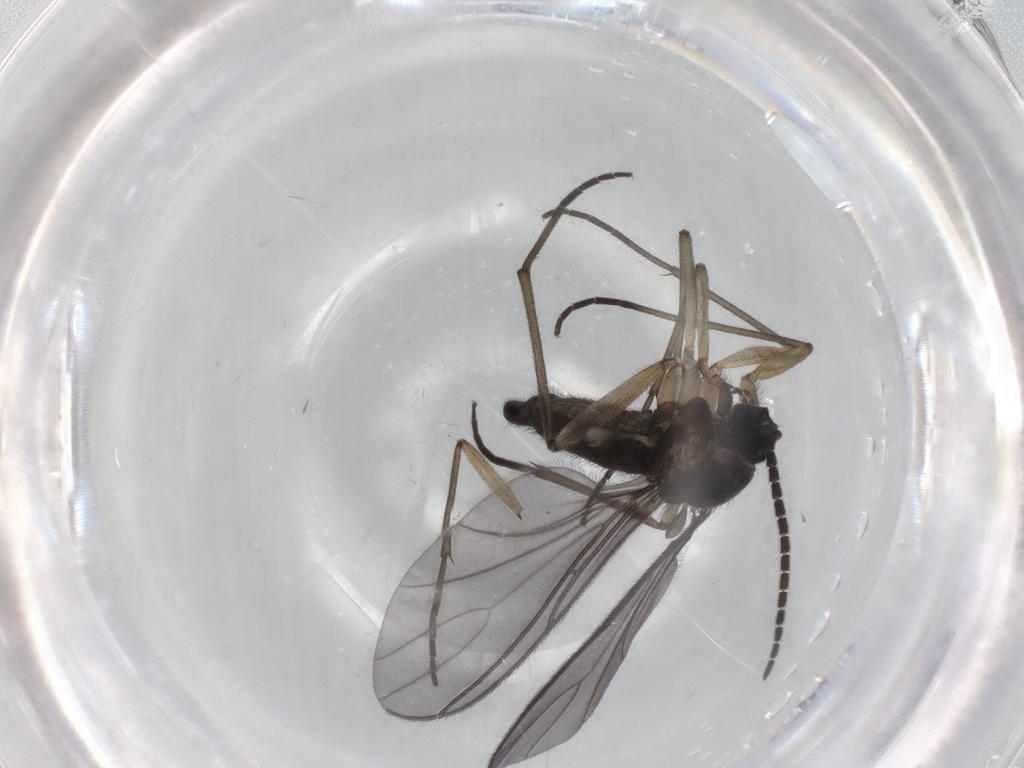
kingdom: Animalia
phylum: Arthropoda
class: Insecta
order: Diptera
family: Sciaridae
